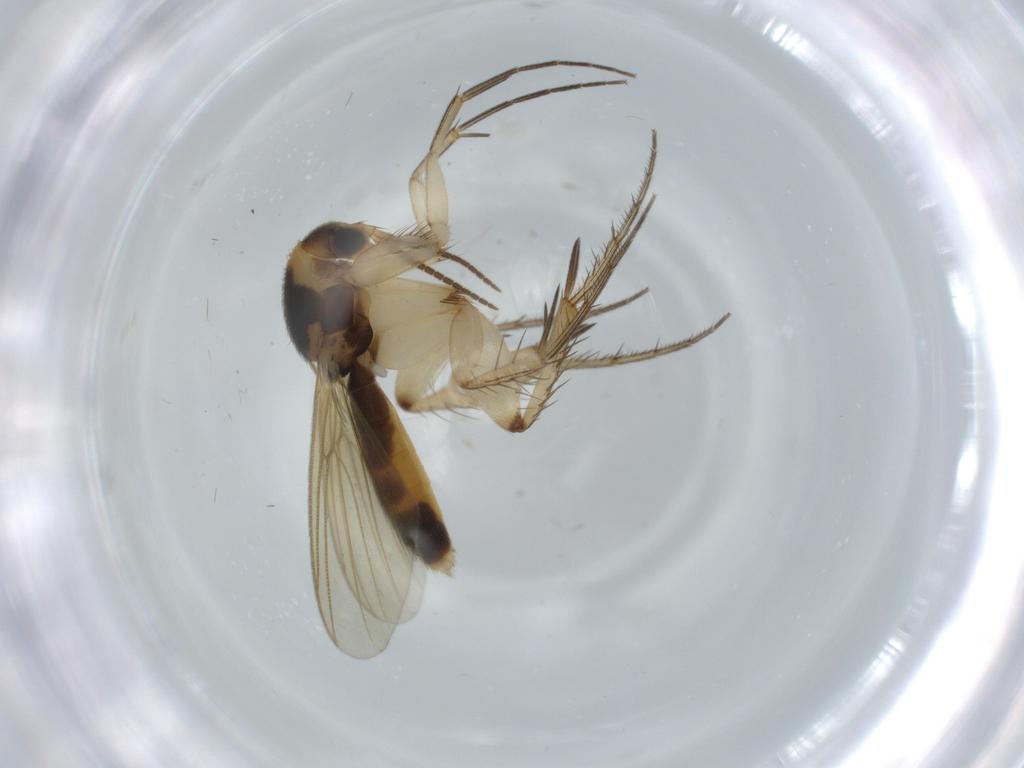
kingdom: Animalia
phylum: Arthropoda
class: Insecta
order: Diptera
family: Mycetophilidae
